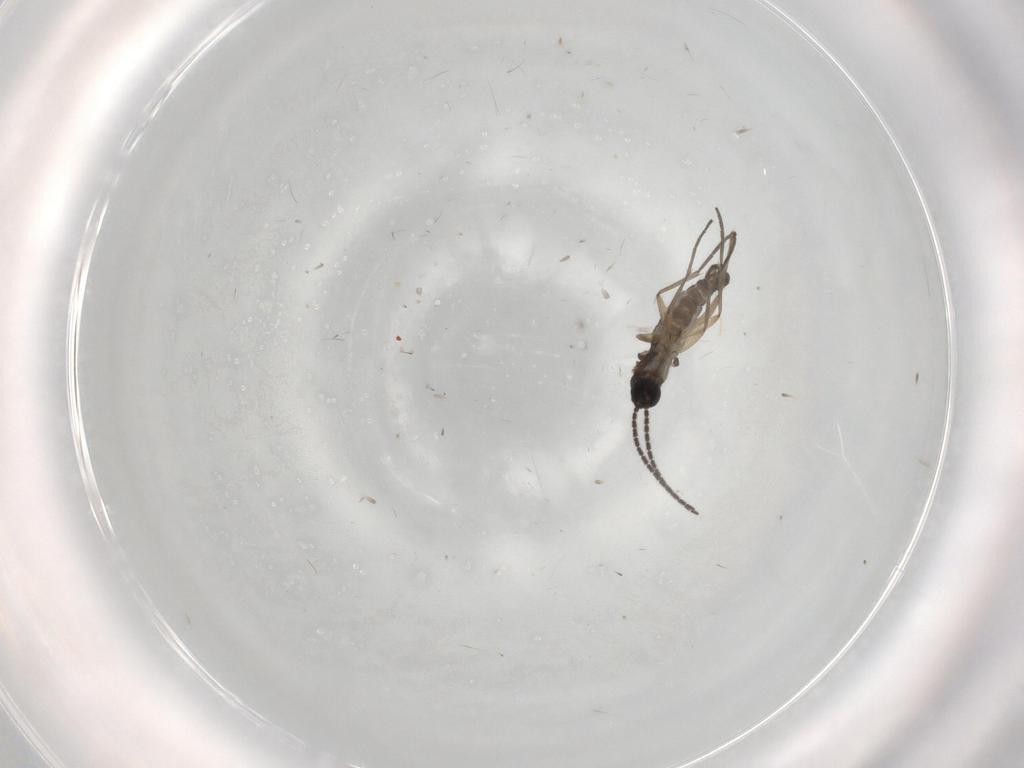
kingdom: Animalia
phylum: Arthropoda
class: Insecta
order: Diptera
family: Sciaridae
